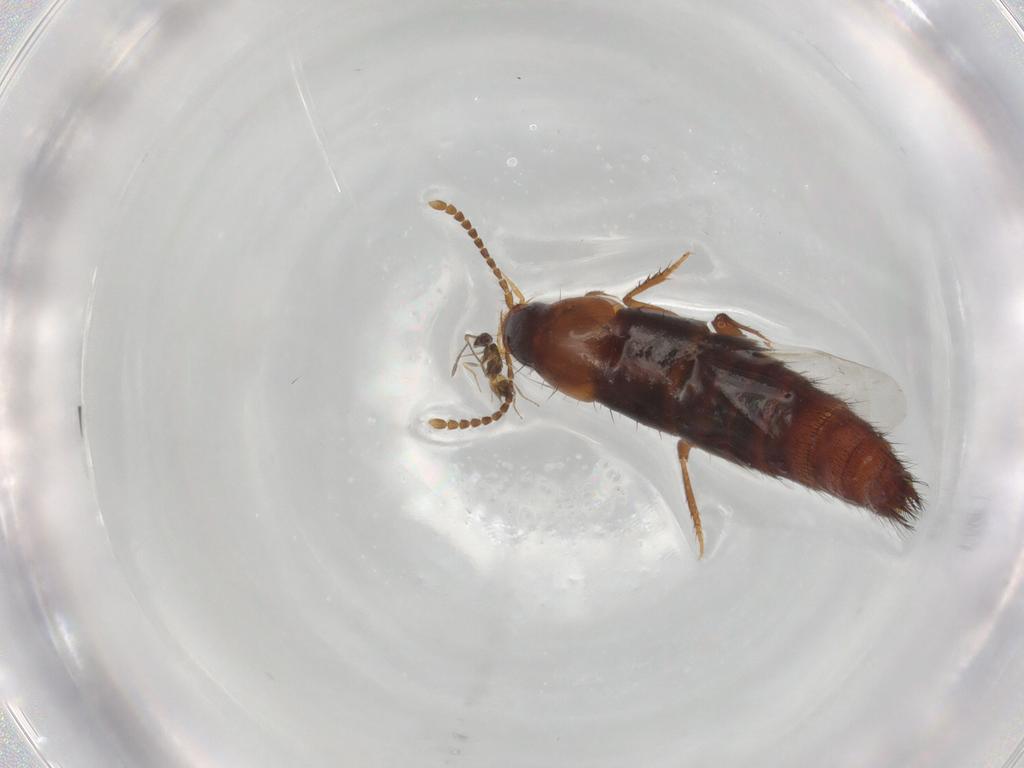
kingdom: Animalia
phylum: Arthropoda
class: Insecta
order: Coleoptera
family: Staphylinidae
